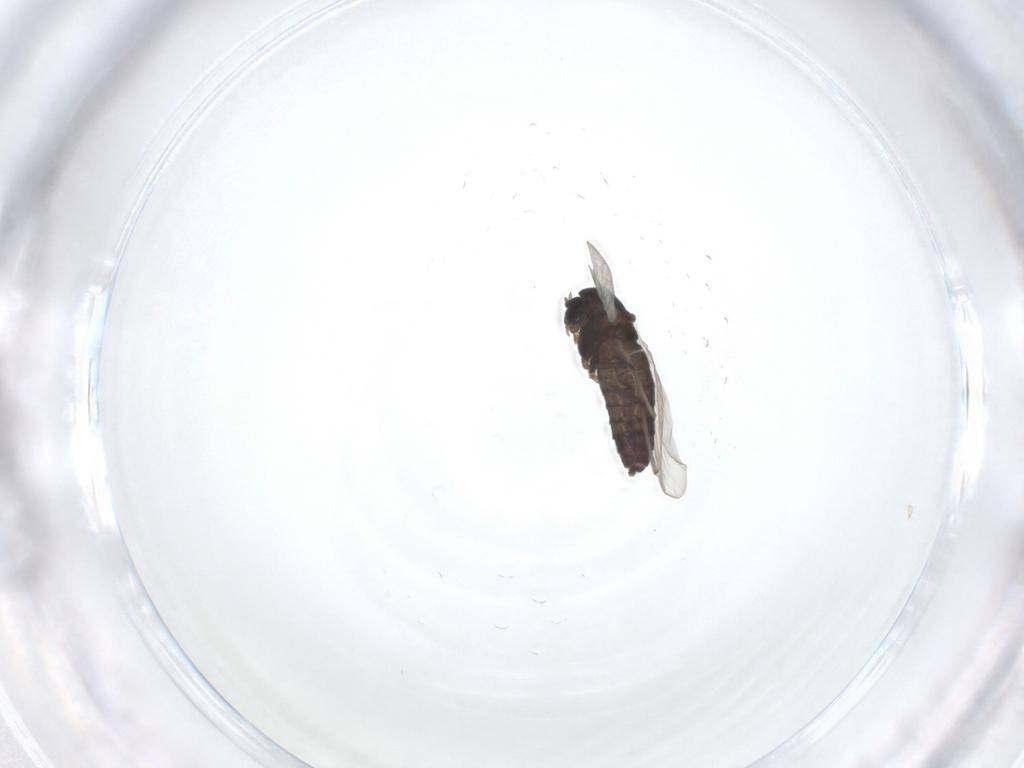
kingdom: Animalia
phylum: Arthropoda
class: Insecta
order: Diptera
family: Chironomidae
